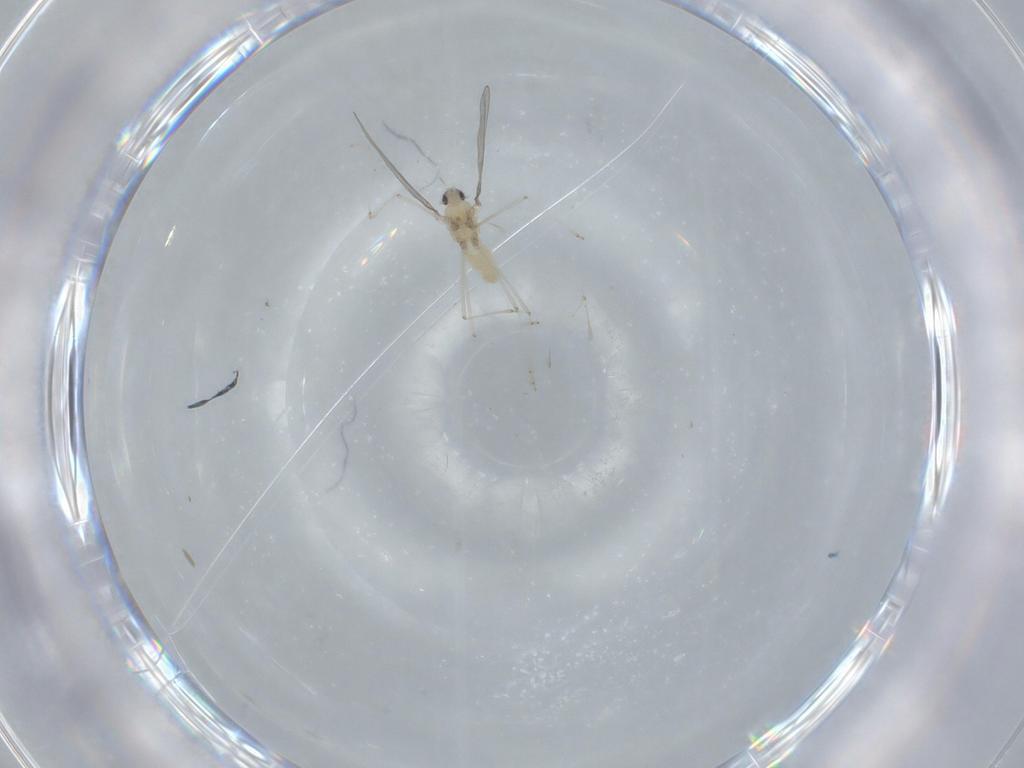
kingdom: Animalia
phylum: Arthropoda
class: Insecta
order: Diptera
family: Cecidomyiidae
